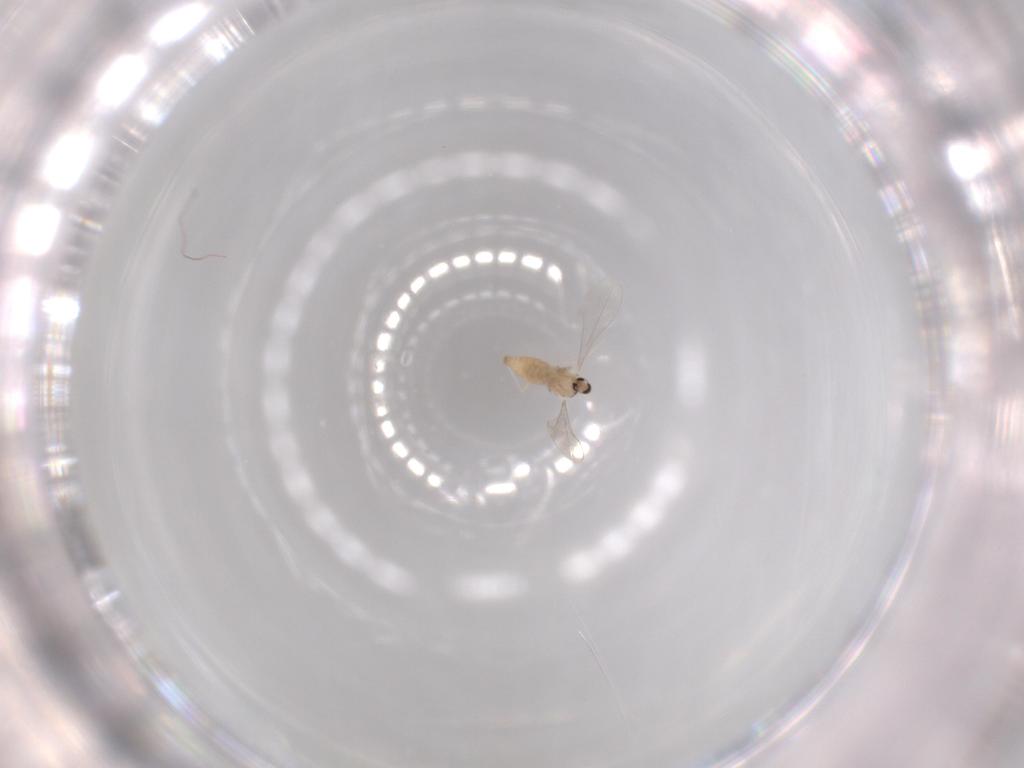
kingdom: Animalia
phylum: Arthropoda
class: Insecta
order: Diptera
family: Cecidomyiidae
